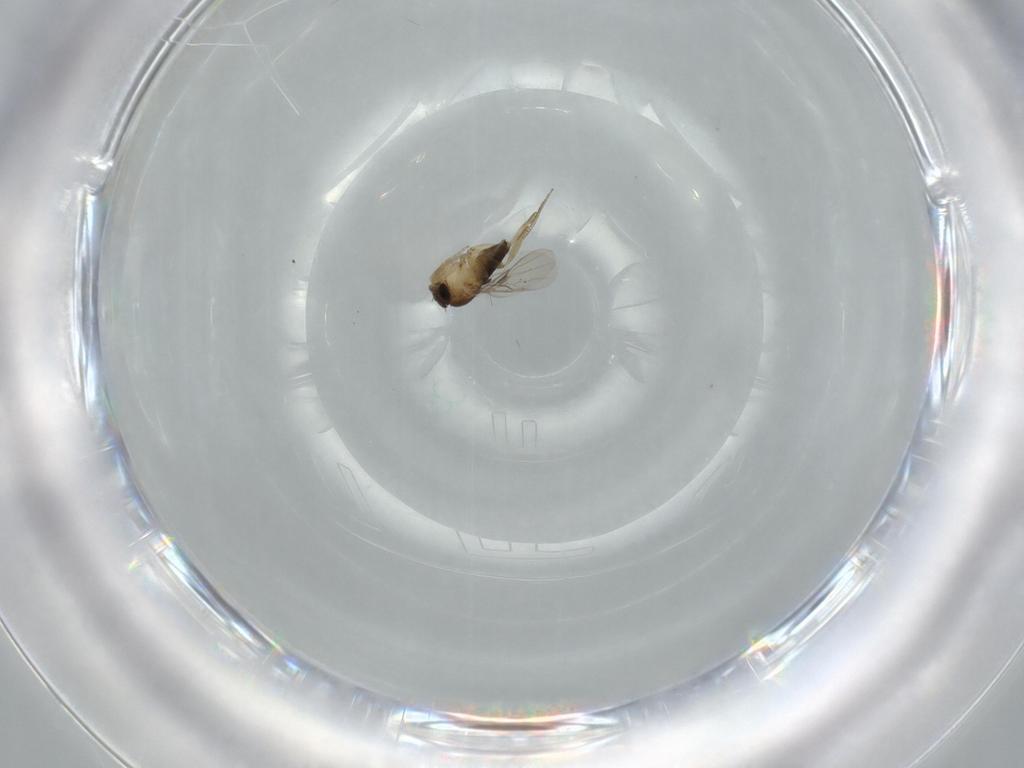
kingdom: Animalia
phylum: Arthropoda
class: Insecta
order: Diptera
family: Phoridae
